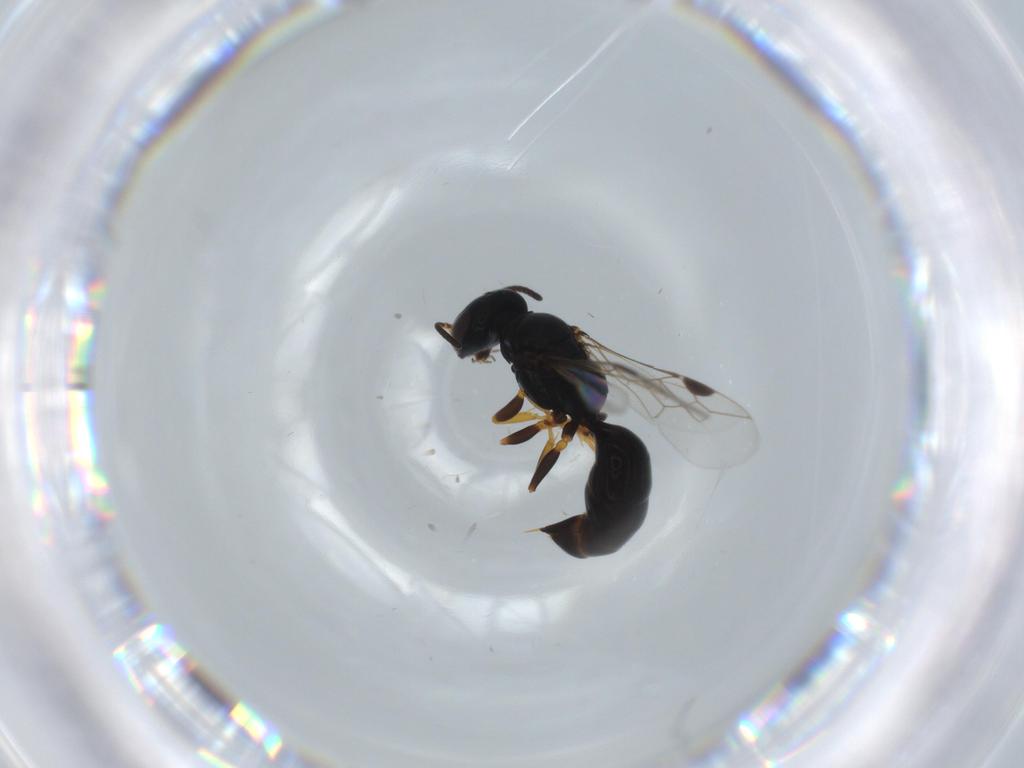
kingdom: Animalia
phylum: Arthropoda
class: Insecta
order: Hymenoptera
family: Pemphredonidae
